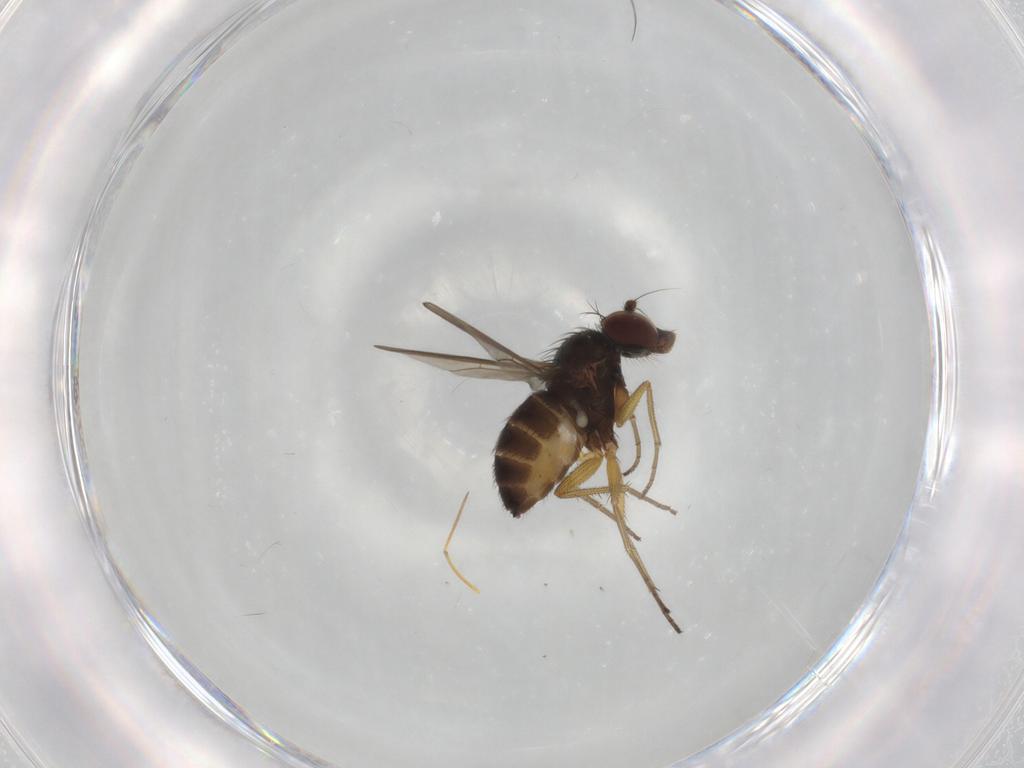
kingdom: Animalia
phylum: Arthropoda
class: Insecta
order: Diptera
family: Dolichopodidae
